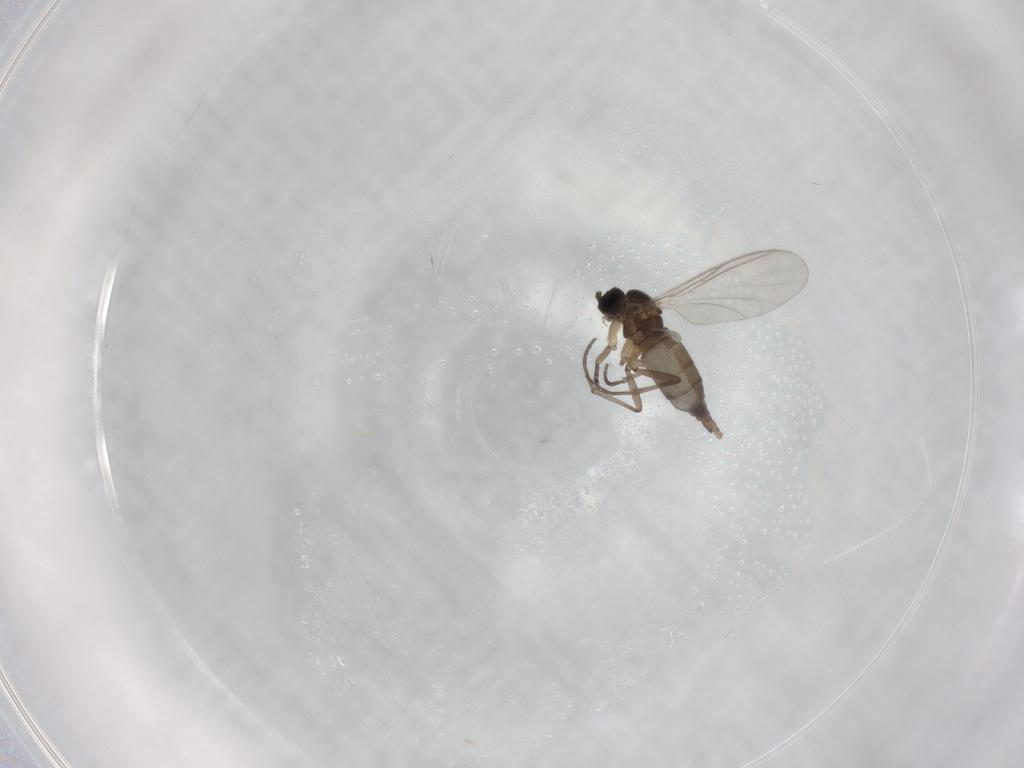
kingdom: Animalia
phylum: Arthropoda
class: Insecta
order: Diptera
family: Sciaridae
